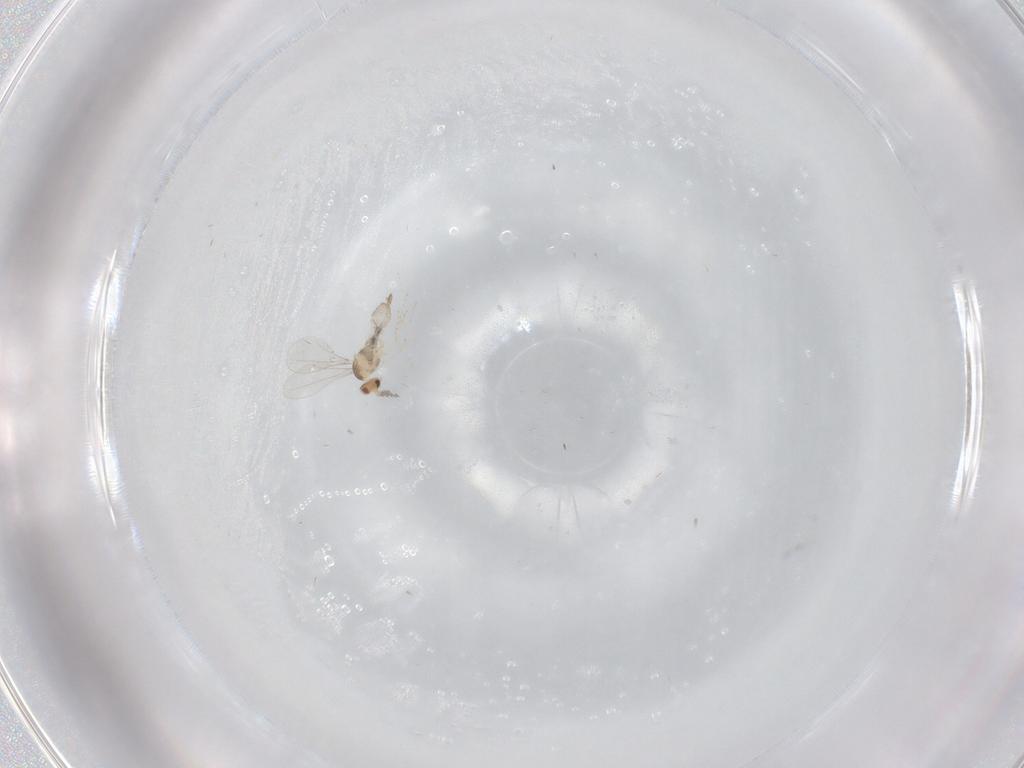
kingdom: Animalia
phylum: Arthropoda
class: Insecta
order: Diptera
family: Cecidomyiidae
